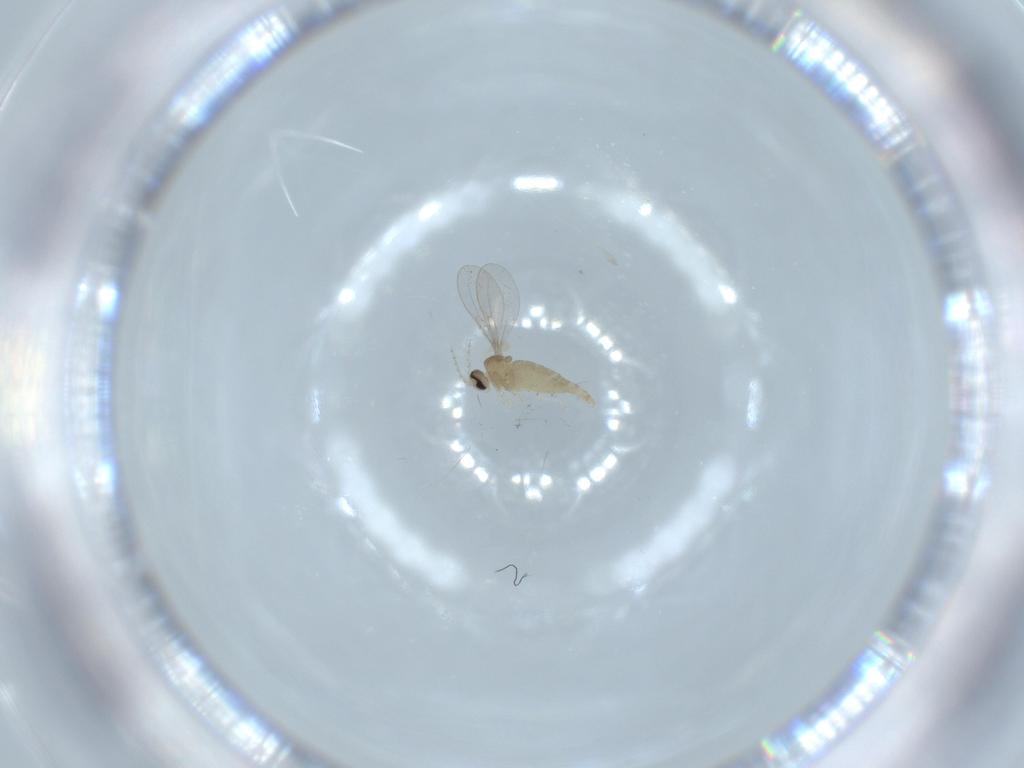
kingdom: Animalia
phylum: Arthropoda
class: Insecta
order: Diptera
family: Cecidomyiidae
